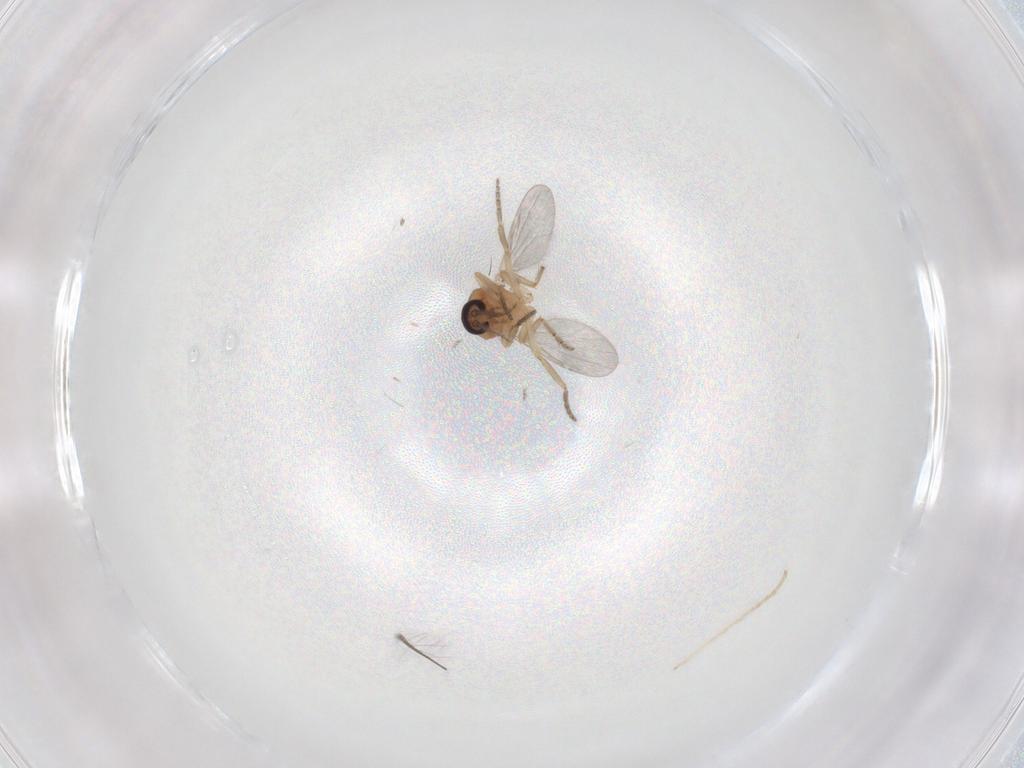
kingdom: Animalia
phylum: Arthropoda
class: Insecta
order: Diptera
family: Ceratopogonidae
